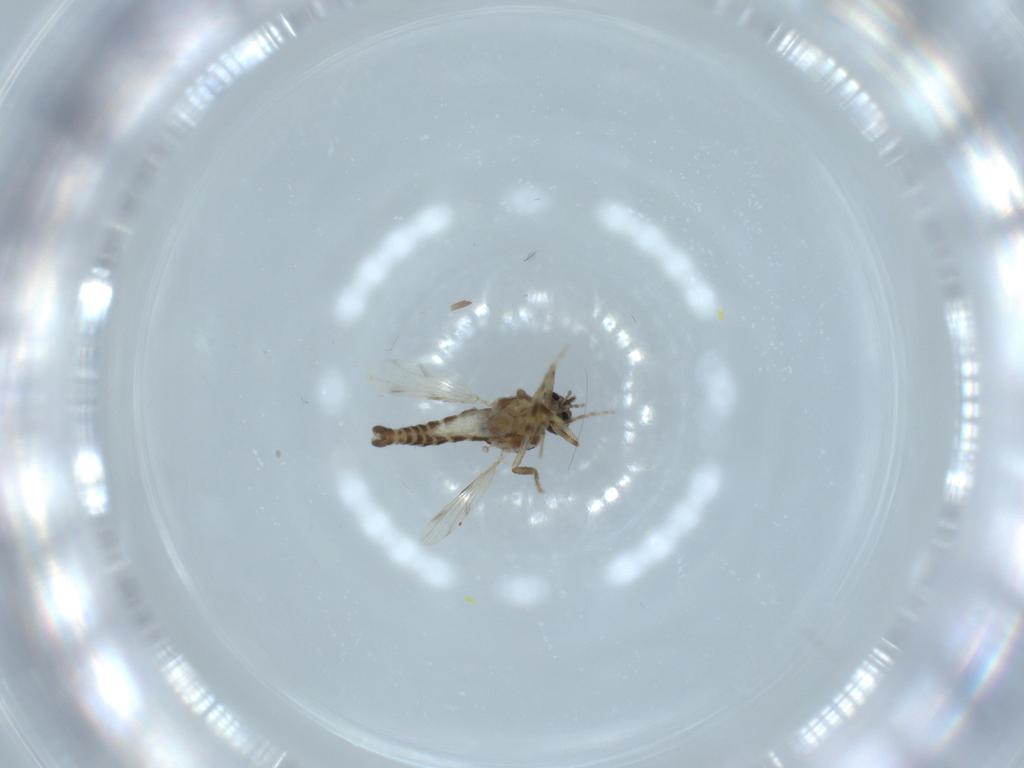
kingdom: Animalia
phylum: Arthropoda
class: Insecta
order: Diptera
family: Ceratopogonidae
